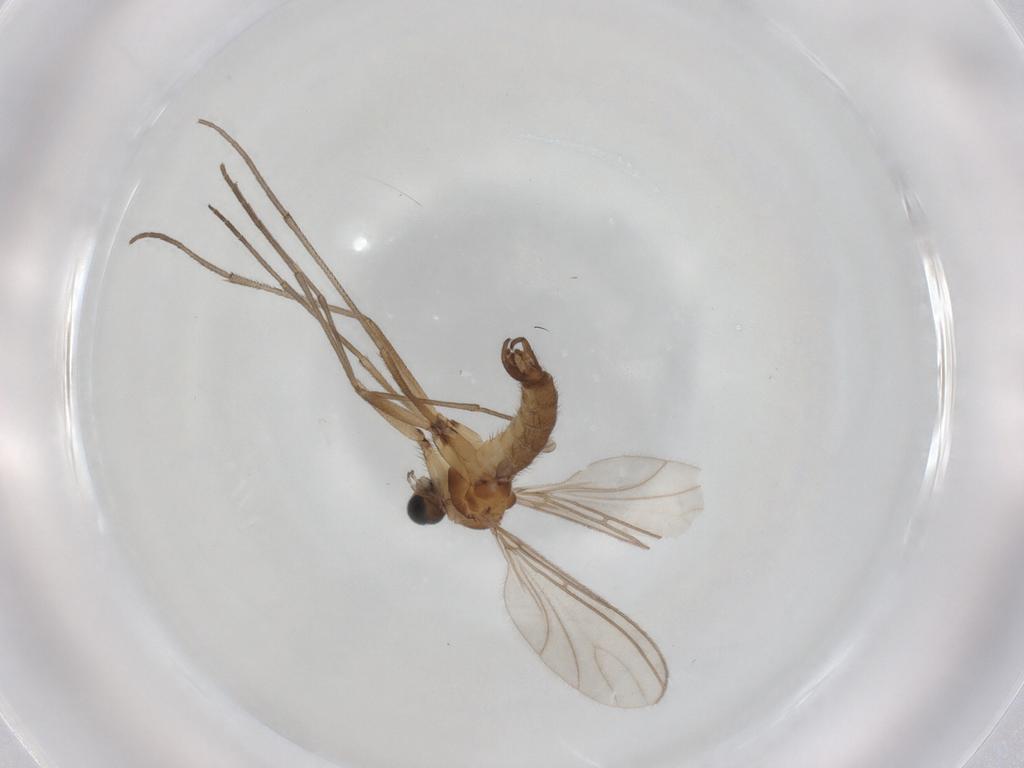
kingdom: Animalia
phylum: Arthropoda
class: Insecta
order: Diptera
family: Sciaridae
